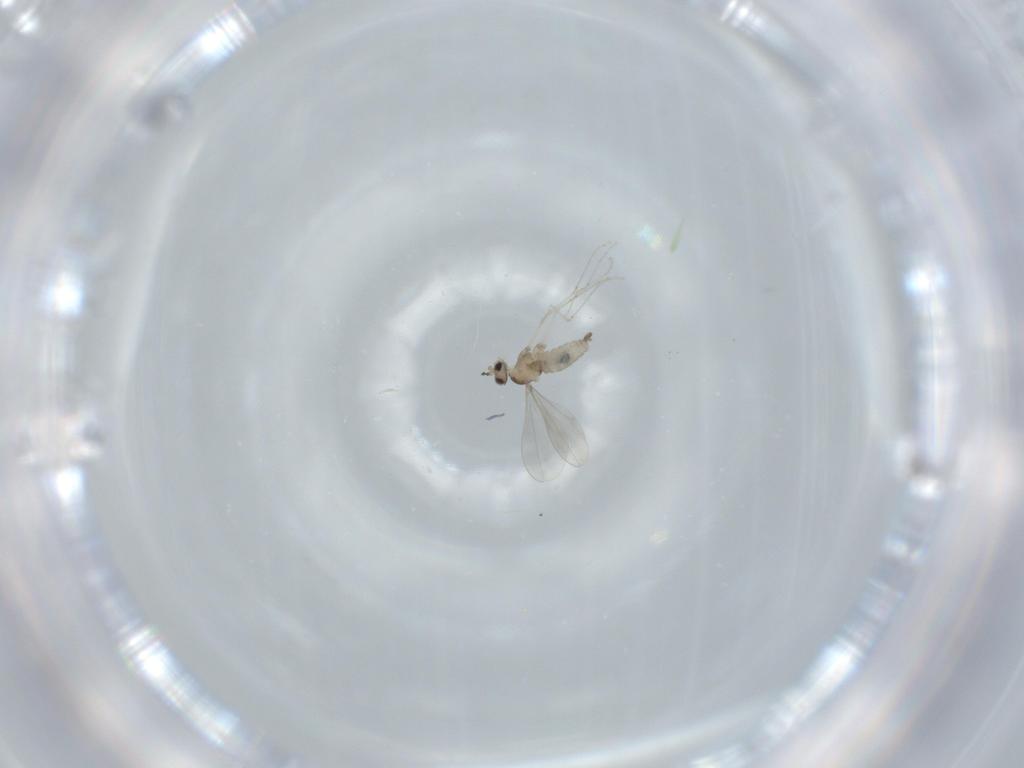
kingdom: Animalia
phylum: Arthropoda
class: Insecta
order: Diptera
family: Cecidomyiidae
